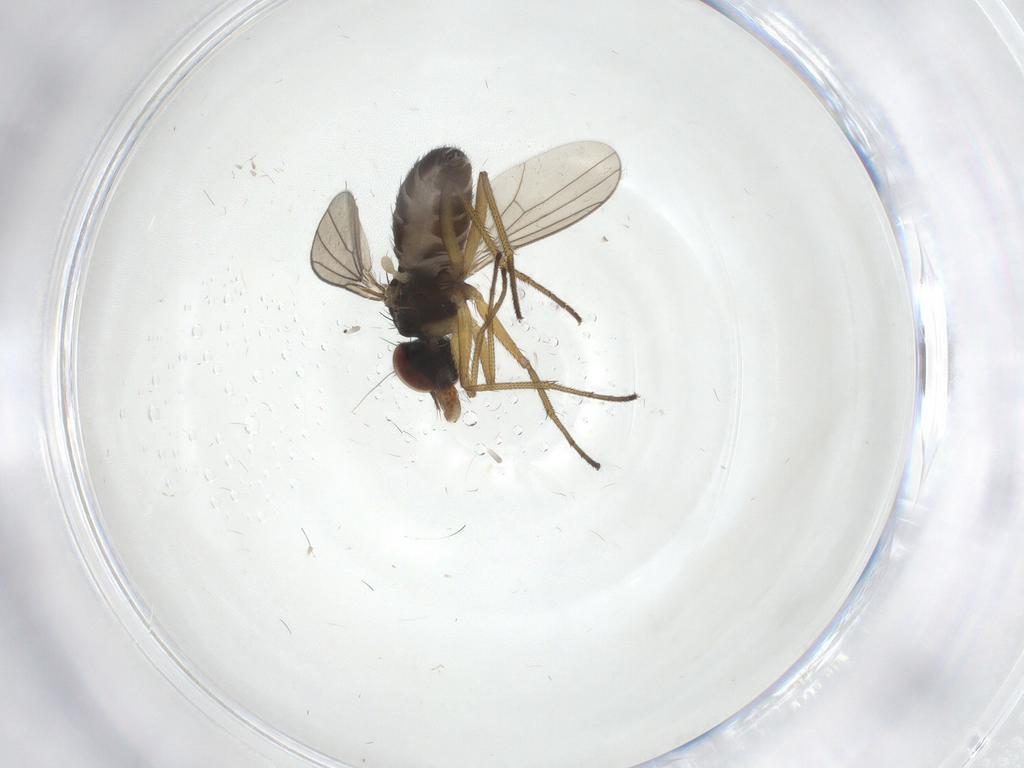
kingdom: Animalia
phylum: Arthropoda
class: Insecta
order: Diptera
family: Dolichopodidae
